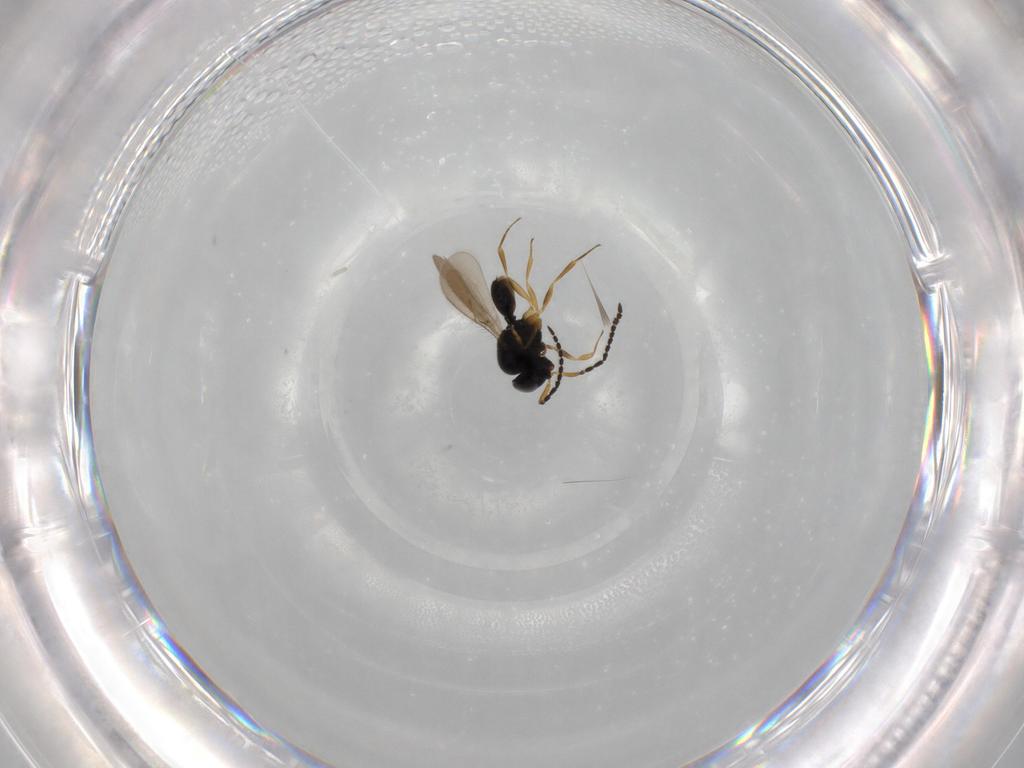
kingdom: Animalia
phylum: Arthropoda
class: Insecta
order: Hymenoptera
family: Scelionidae
